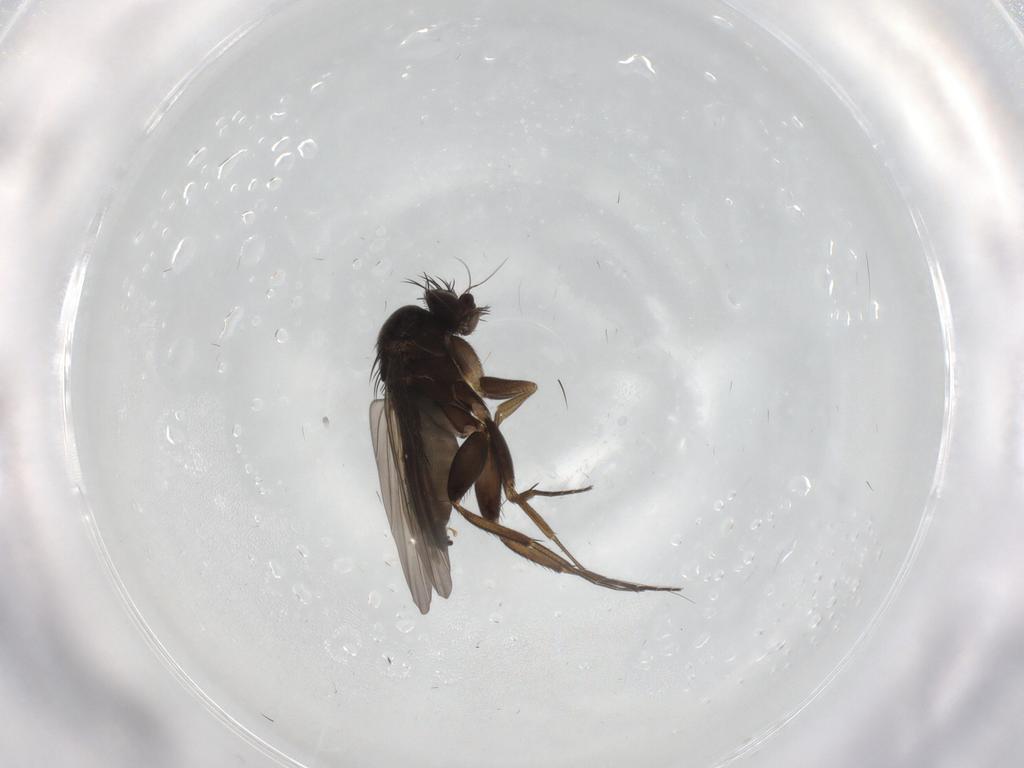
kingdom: Animalia
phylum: Arthropoda
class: Insecta
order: Diptera
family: Phoridae
